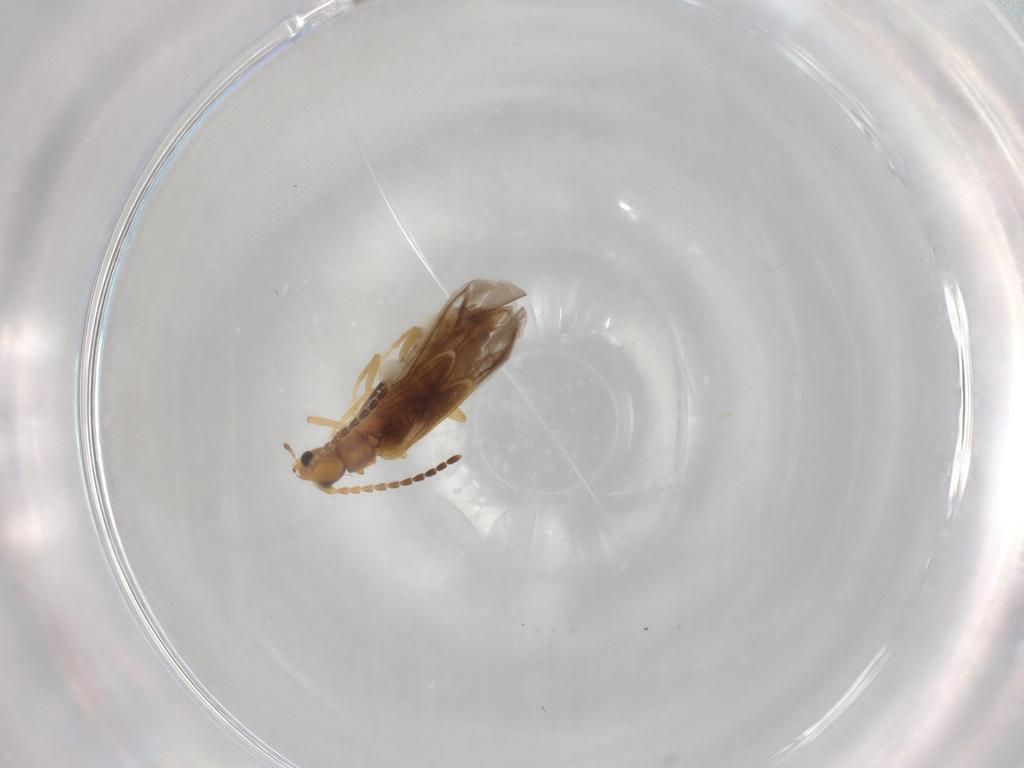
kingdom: Animalia
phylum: Arthropoda
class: Insecta
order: Coleoptera
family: Cantharidae
